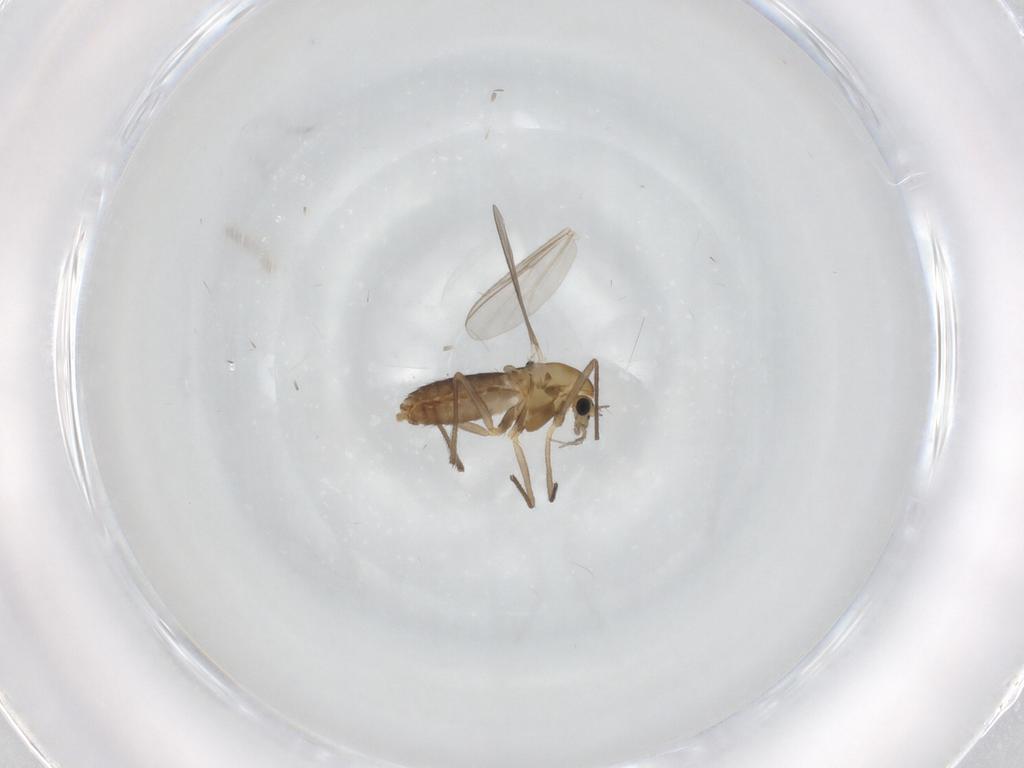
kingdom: Animalia
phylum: Arthropoda
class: Insecta
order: Diptera
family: Chironomidae
